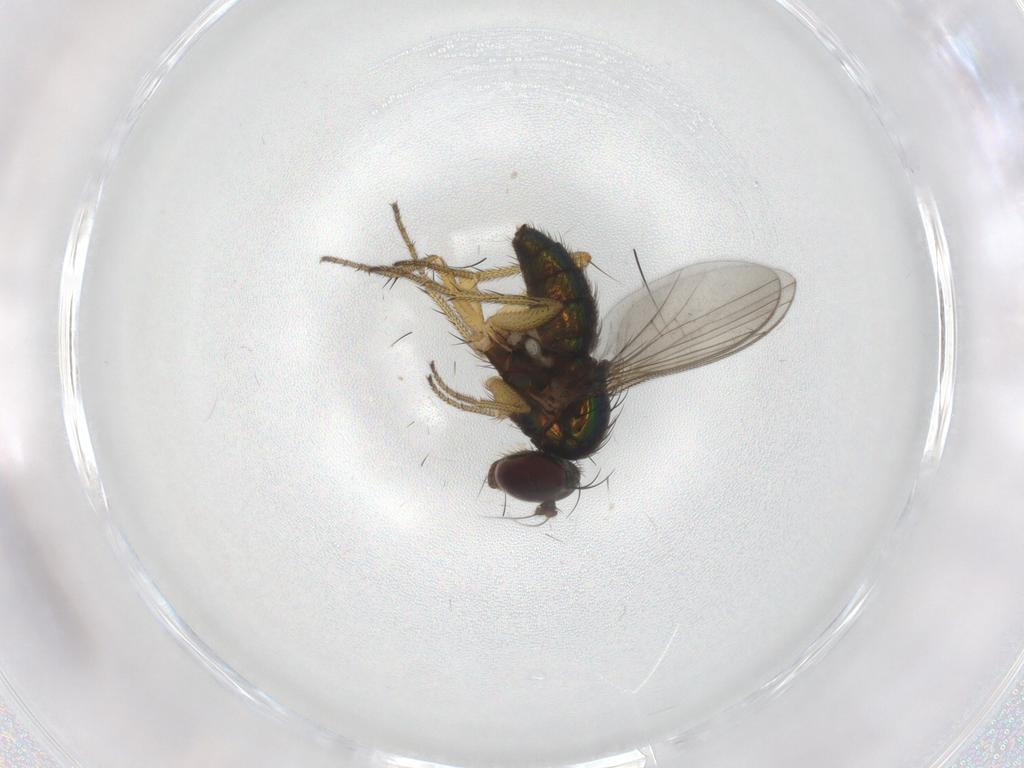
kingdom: Animalia
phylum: Arthropoda
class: Insecta
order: Diptera
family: Dolichopodidae
